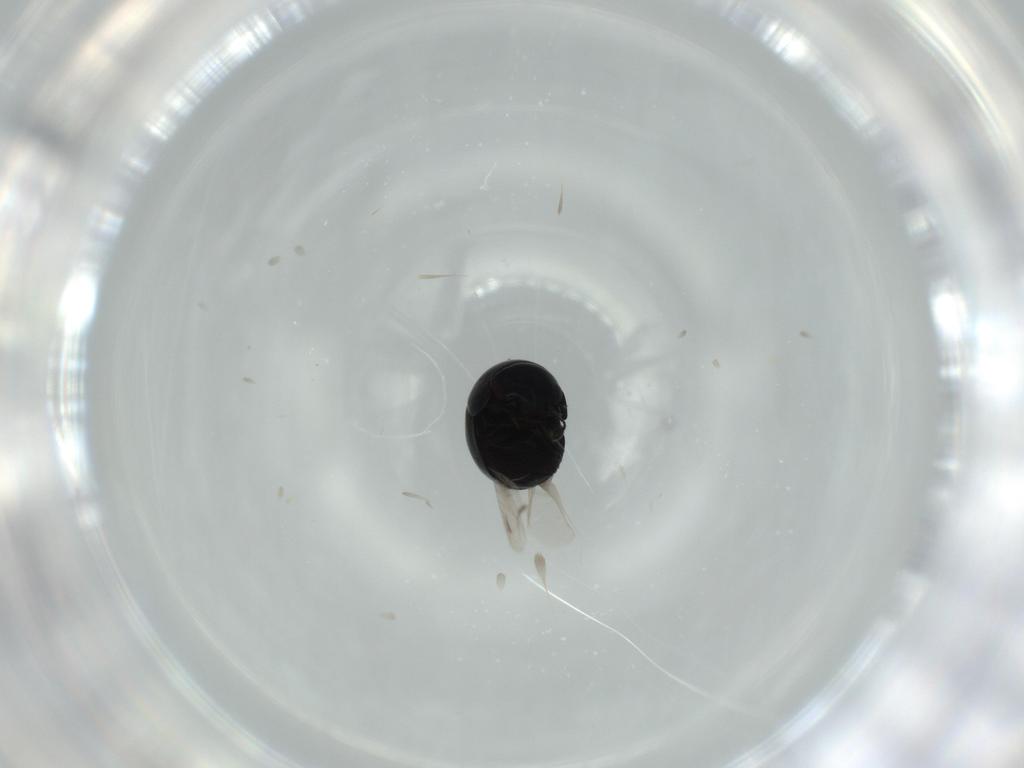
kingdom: Animalia
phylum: Arthropoda
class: Insecta
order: Coleoptera
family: Cybocephalidae
